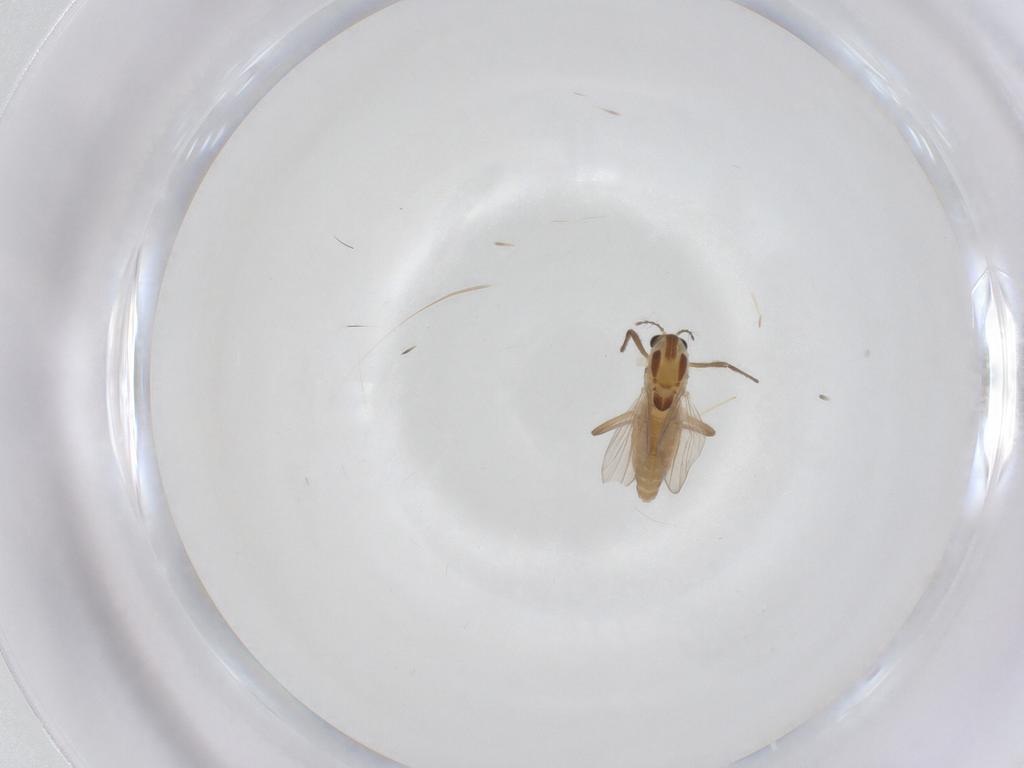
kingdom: Animalia
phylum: Arthropoda
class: Insecta
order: Diptera
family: Chironomidae
